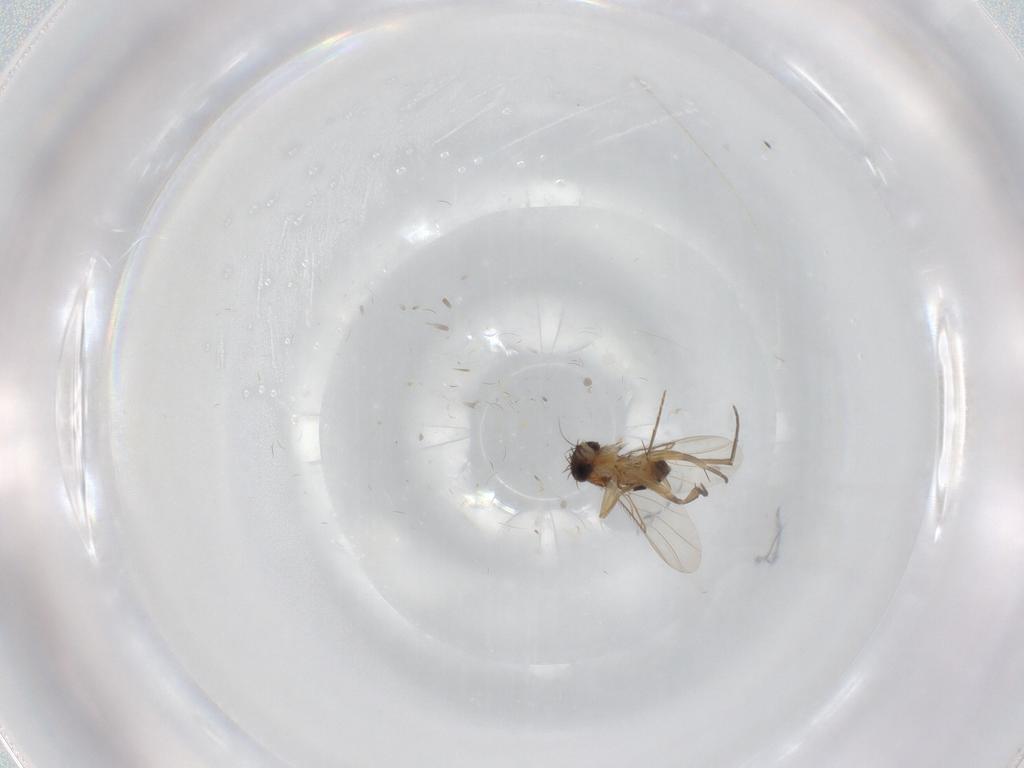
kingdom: Animalia
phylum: Arthropoda
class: Insecta
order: Diptera
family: Phoridae
